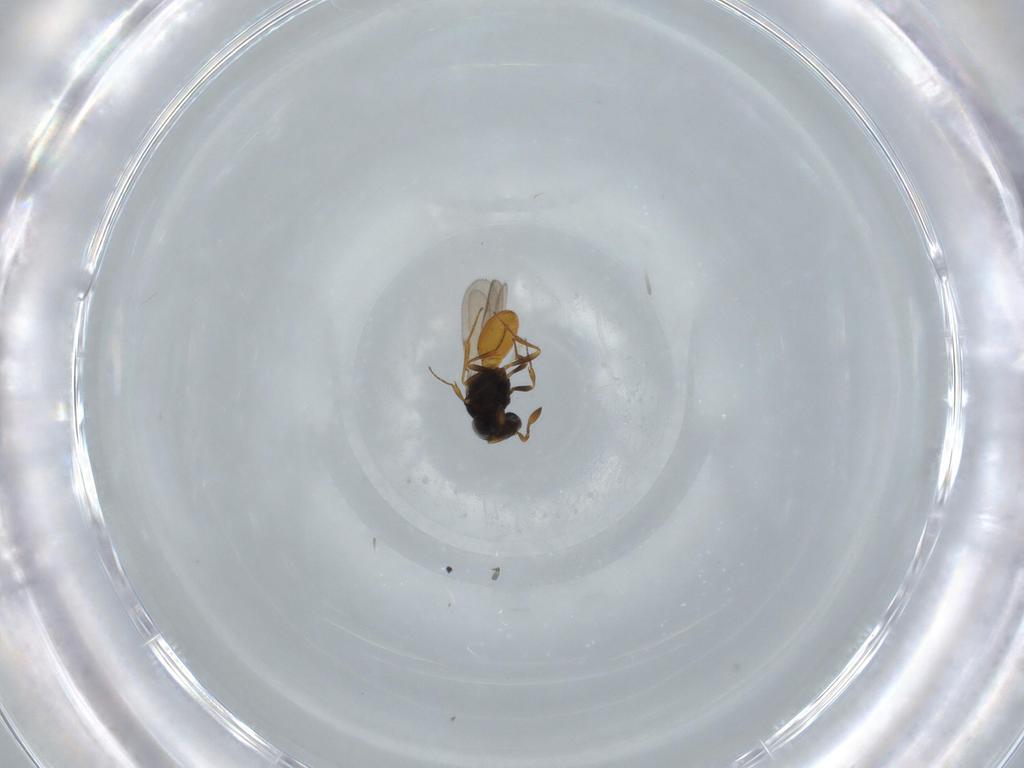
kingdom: Animalia
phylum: Arthropoda
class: Insecta
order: Hymenoptera
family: Scelionidae
